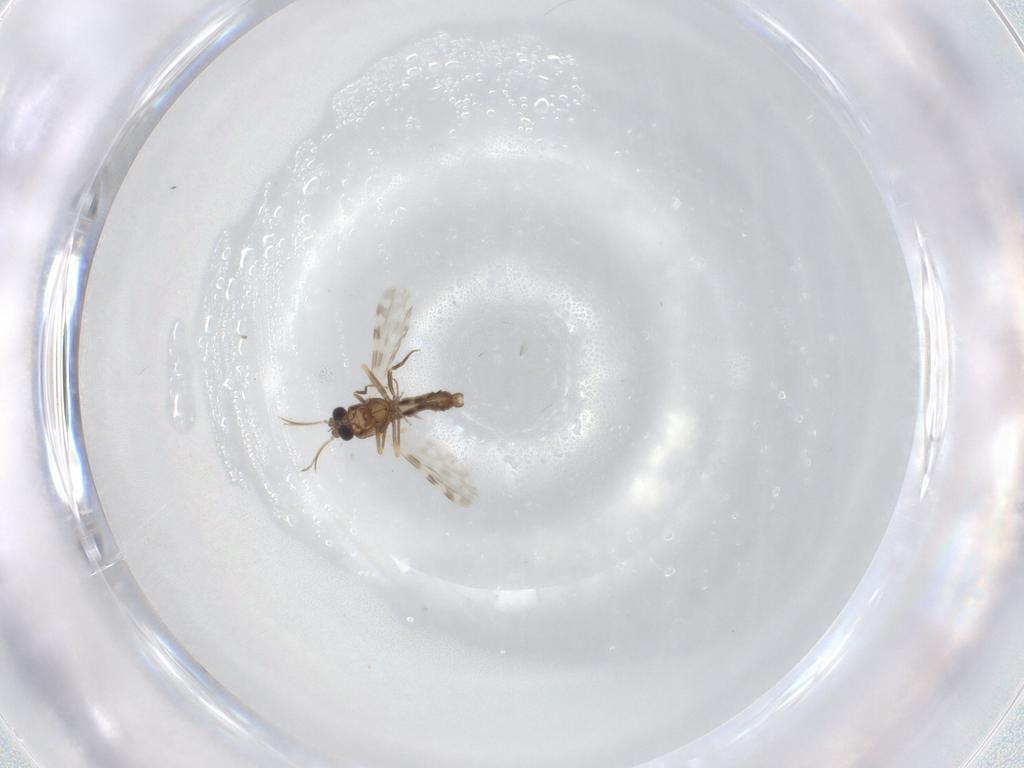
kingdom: Animalia
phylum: Arthropoda
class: Insecta
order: Diptera
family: Ceratopogonidae
